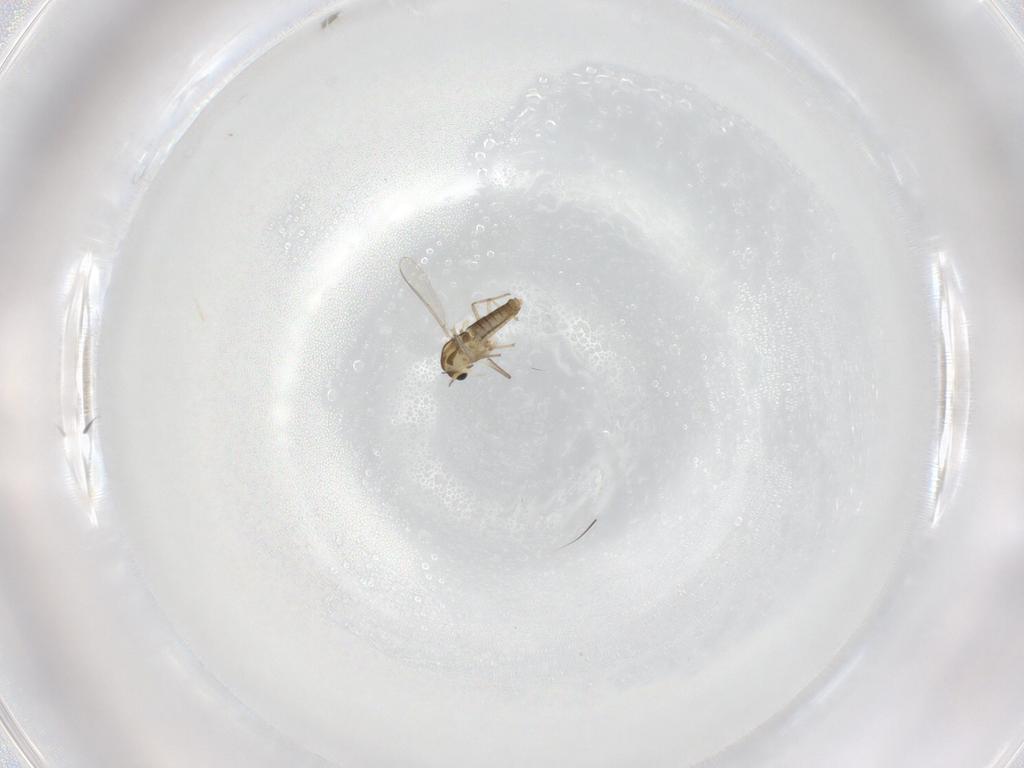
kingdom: Animalia
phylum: Arthropoda
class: Insecta
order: Diptera
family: Chironomidae
